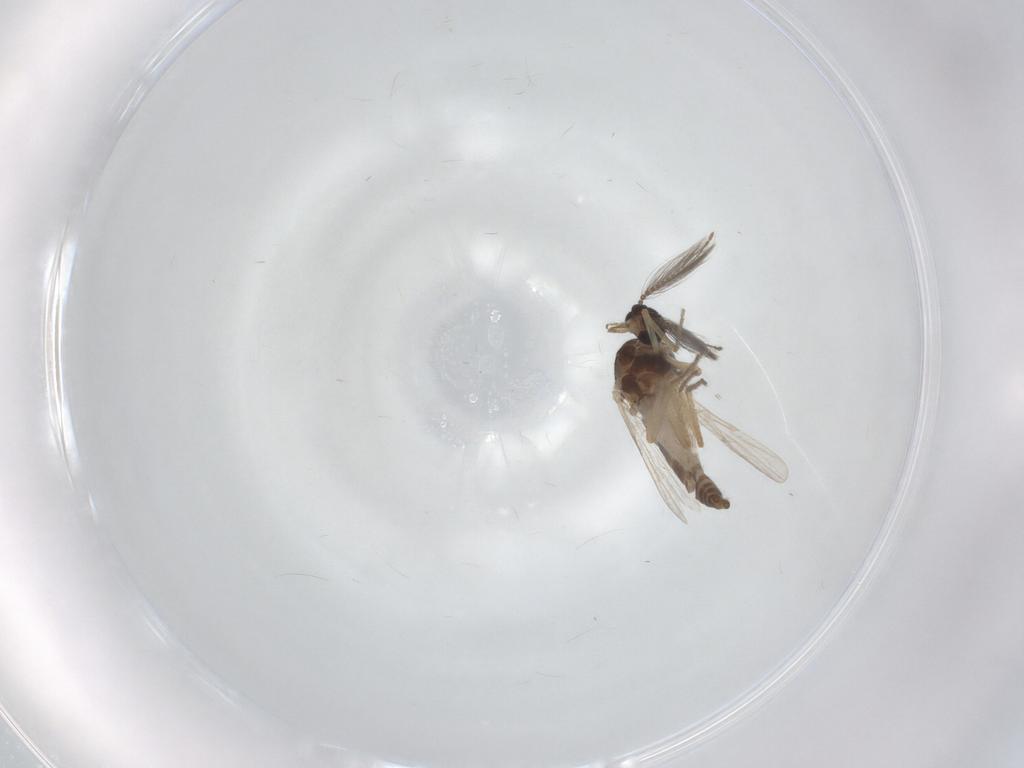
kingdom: Animalia
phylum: Arthropoda
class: Insecta
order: Diptera
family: Ceratopogonidae
